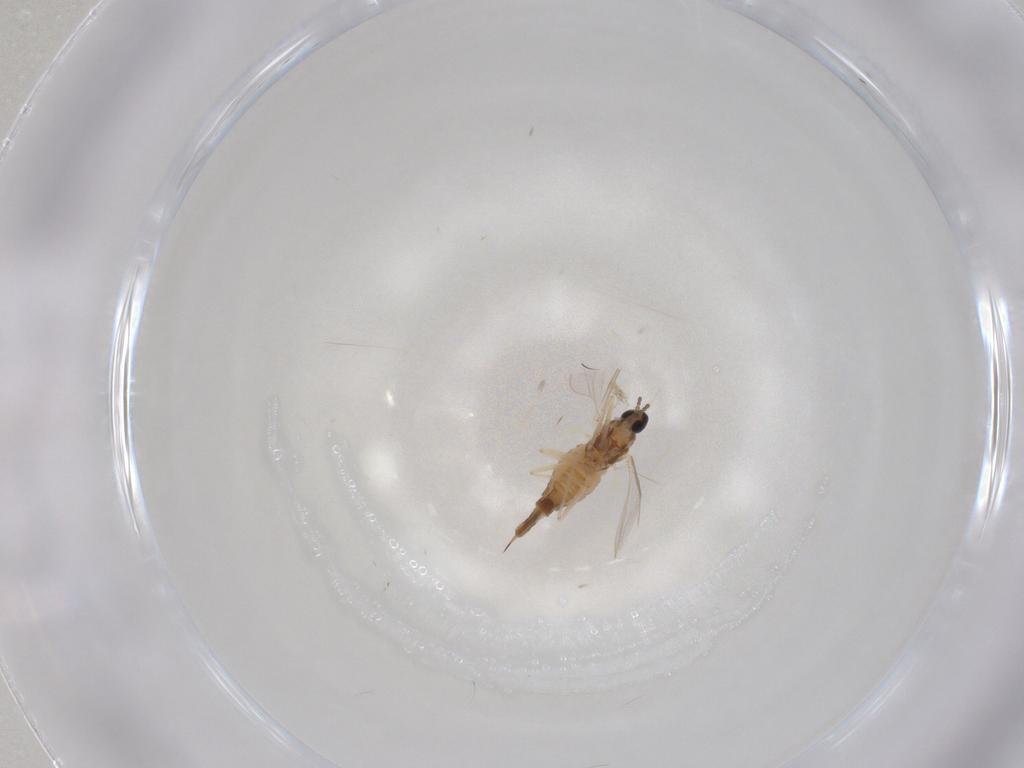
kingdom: Animalia
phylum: Arthropoda
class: Insecta
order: Diptera
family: Cecidomyiidae
